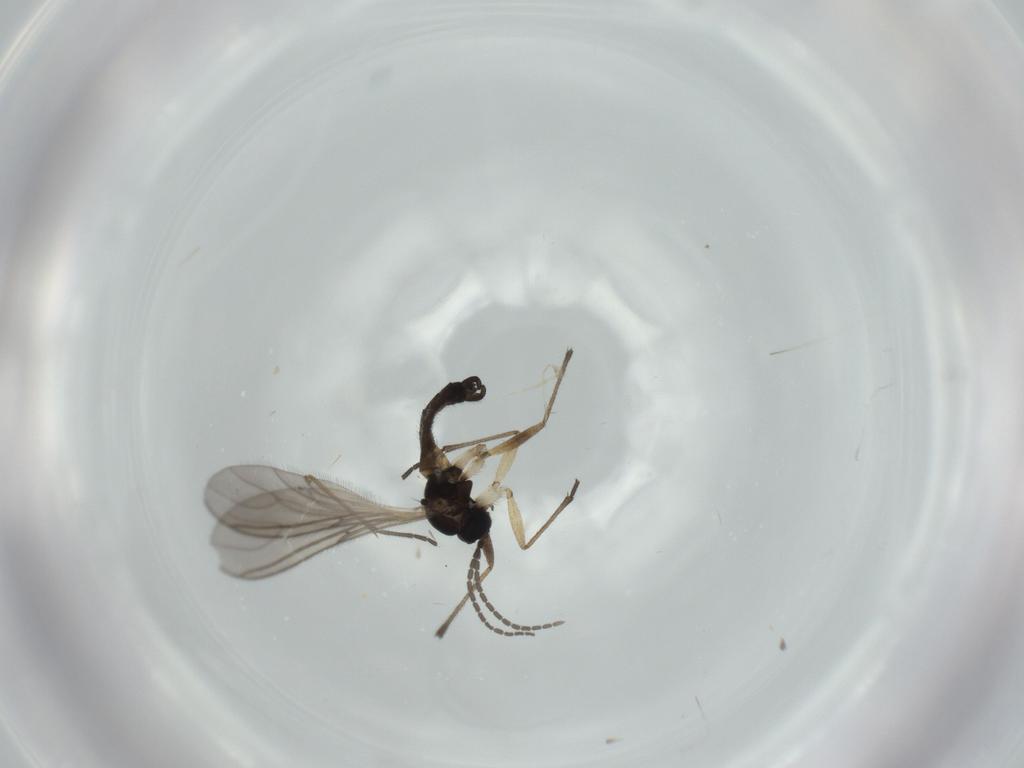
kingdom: Animalia
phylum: Arthropoda
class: Insecta
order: Diptera
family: Sciaridae
